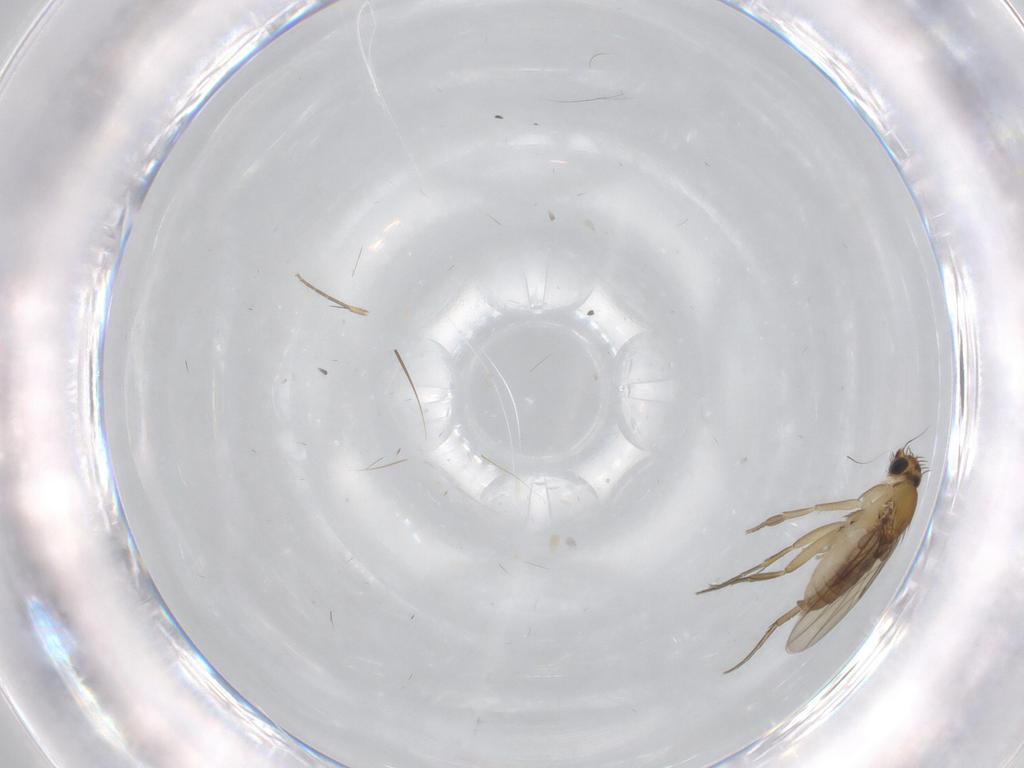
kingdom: Animalia
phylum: Arthropoda
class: Insecta
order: Diptera
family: Phoridae
